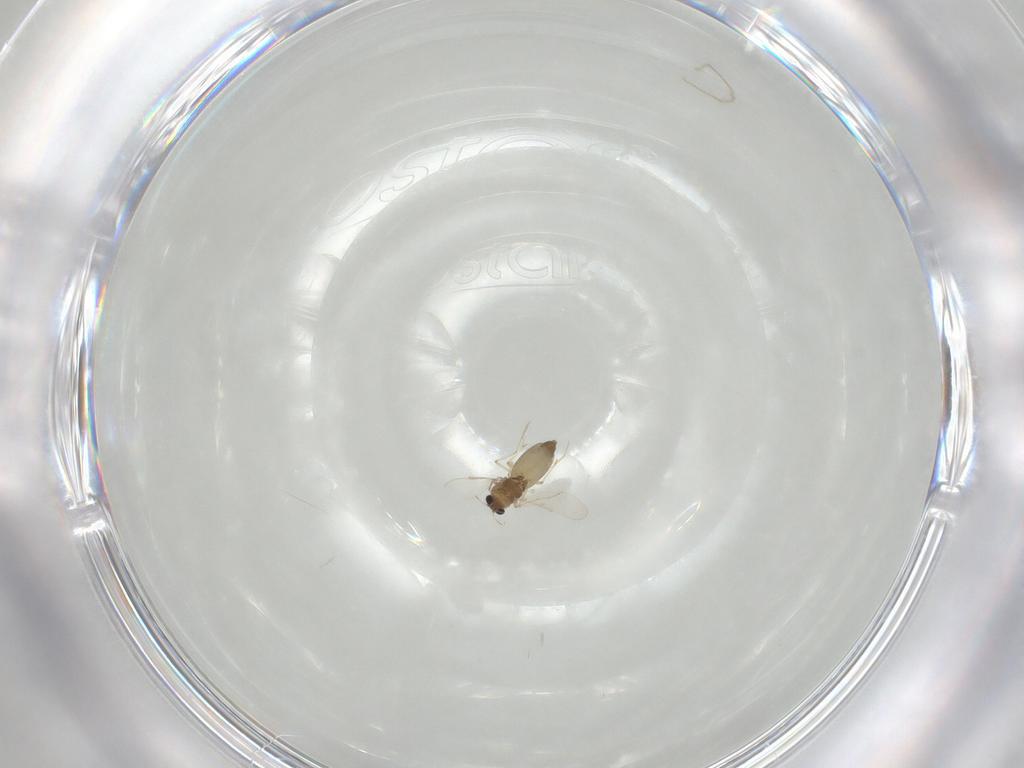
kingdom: Animalia
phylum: Arthropoda
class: Insecta
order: Diptera
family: Chironomidae
